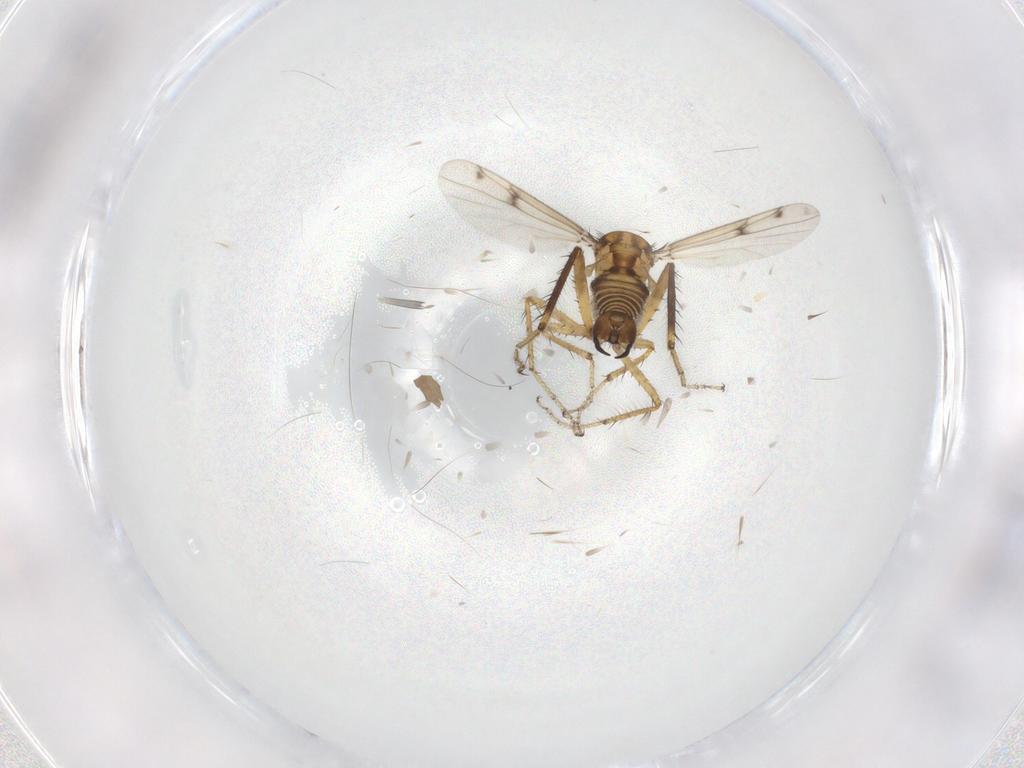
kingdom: Animalia
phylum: Arthropoda
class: Insecta
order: Diptera
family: Ceratopogonidae
